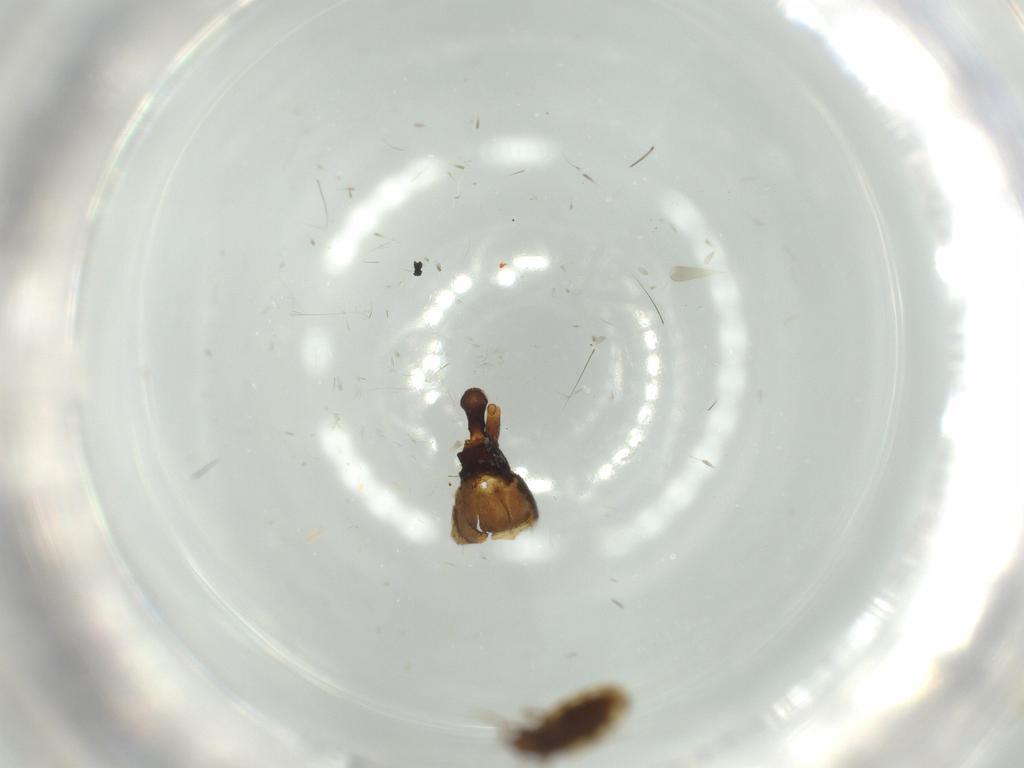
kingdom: Animalia
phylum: Arthropoda
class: Insecta
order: Hymenoptera
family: Formicidae
